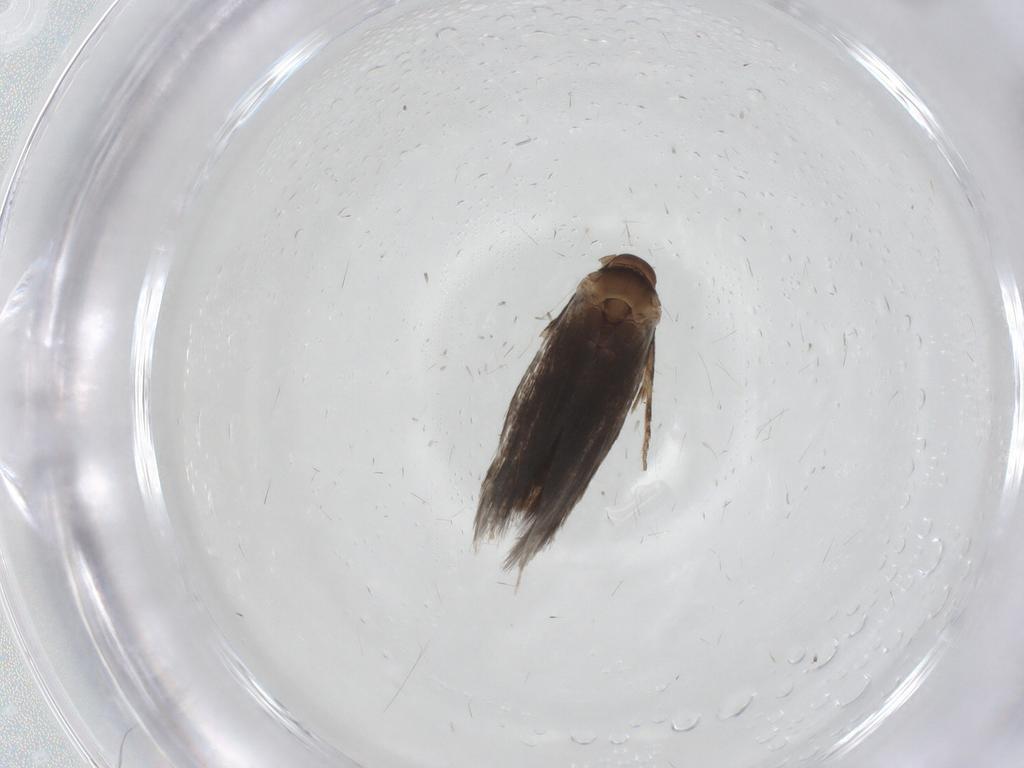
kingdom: Animalia
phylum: Arthropoda
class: Insecta
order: Lepidoptera
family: Elachistidae
